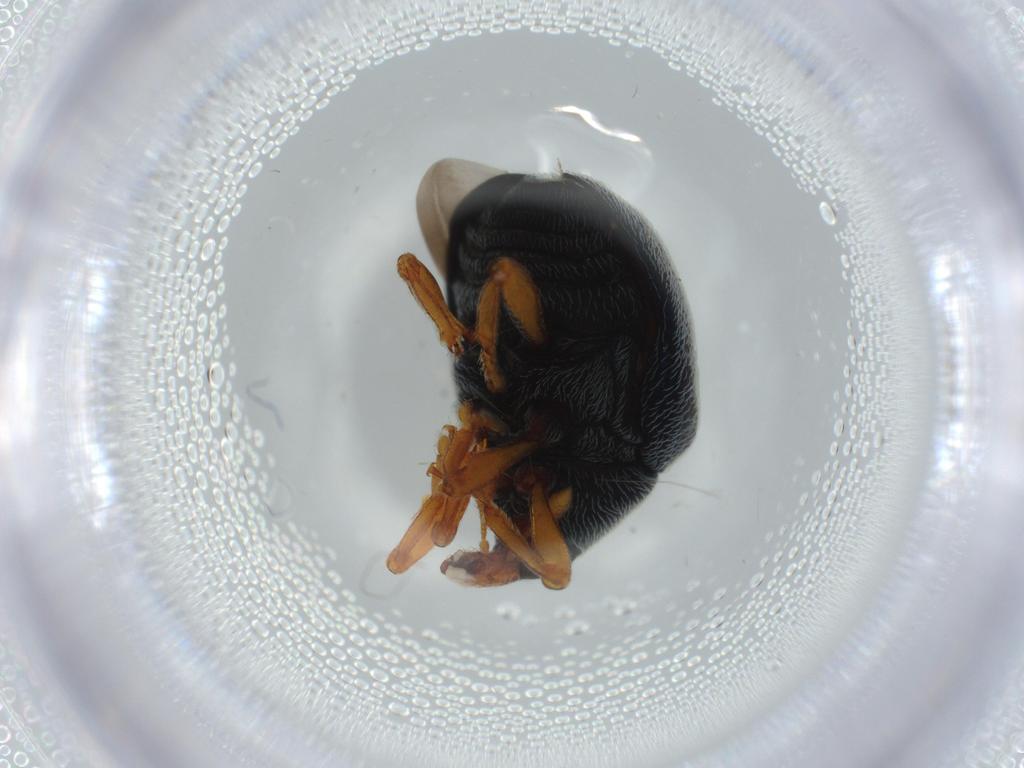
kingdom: Animalia
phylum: Arthropoda
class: Insecta
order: Coleoptera
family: Curculionidae
